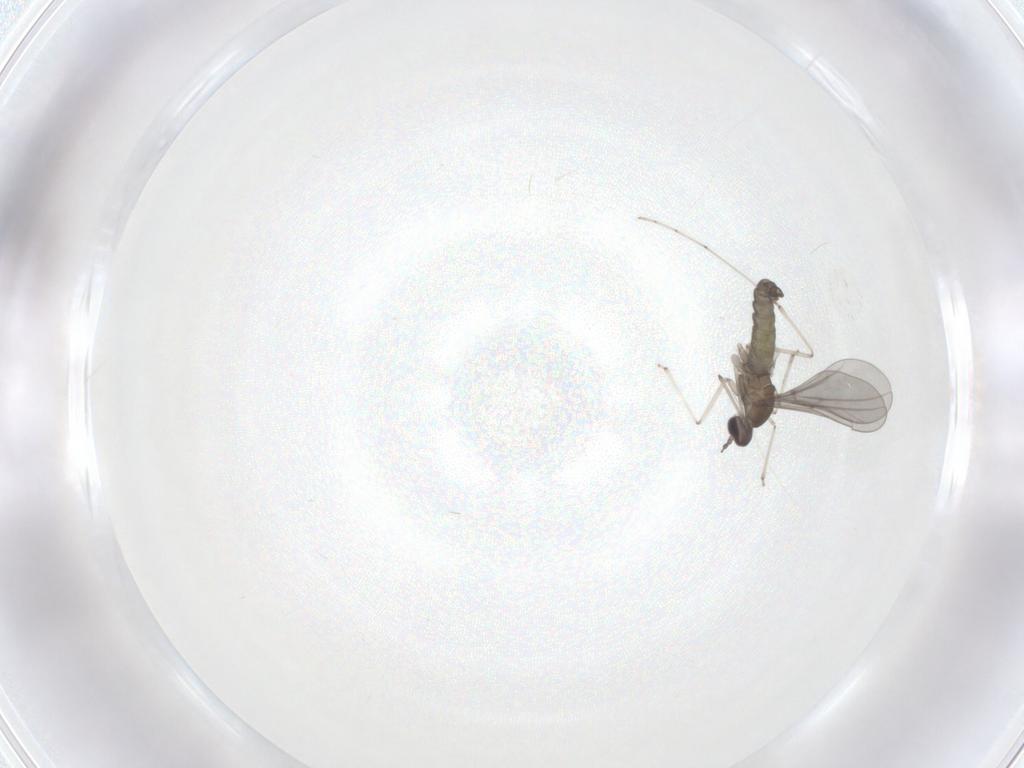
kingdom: Animalia
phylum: Arthropoda
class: Insecta
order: Diptera
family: Cecidomyiidae
